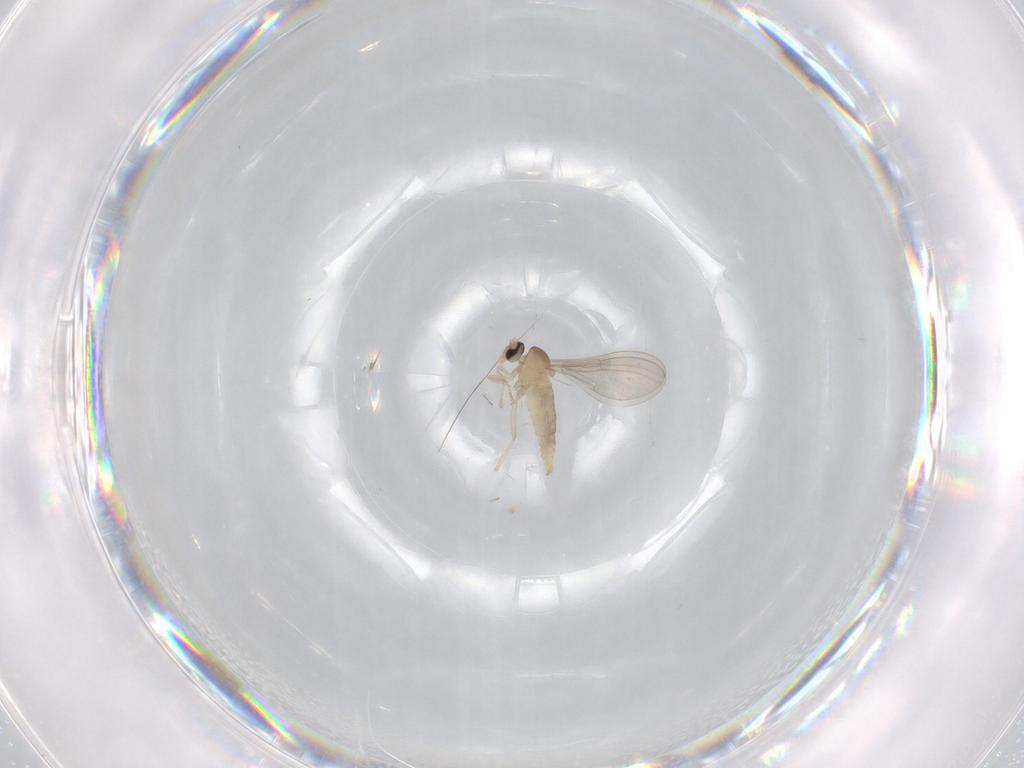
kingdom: Animalia
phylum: Arthropoda
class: Insecta
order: Diptera
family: Cecidomyiidae
